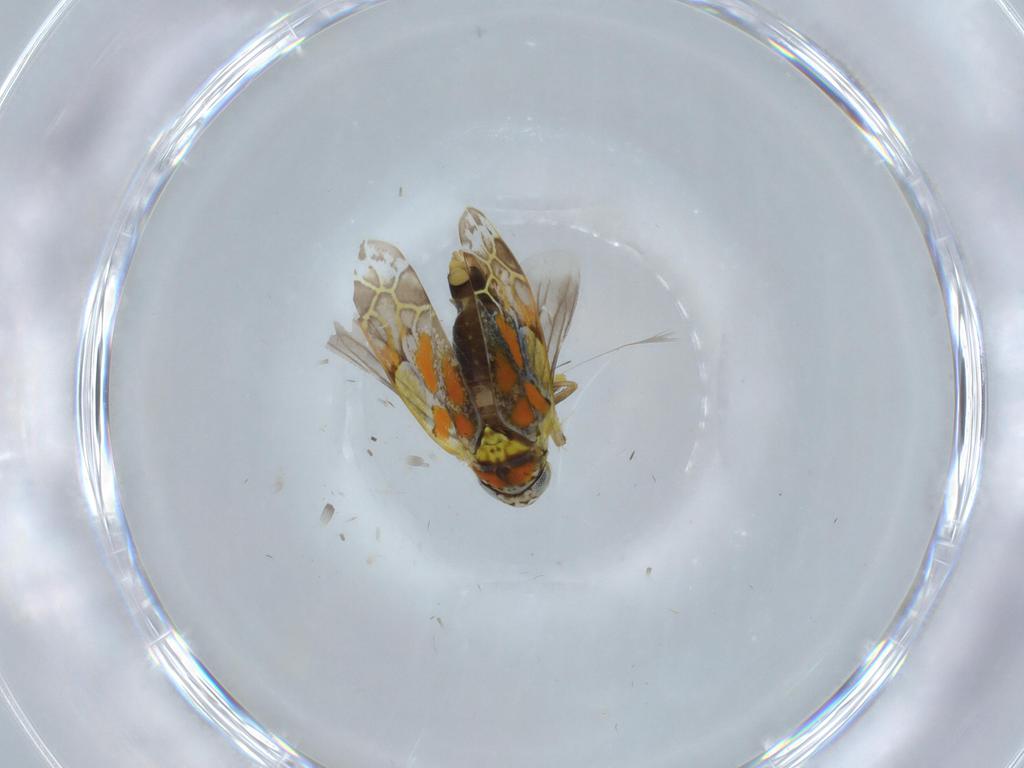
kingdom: Animalia
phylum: Arthropoda
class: Insecta
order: Hemiptera
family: Cicadellidae
